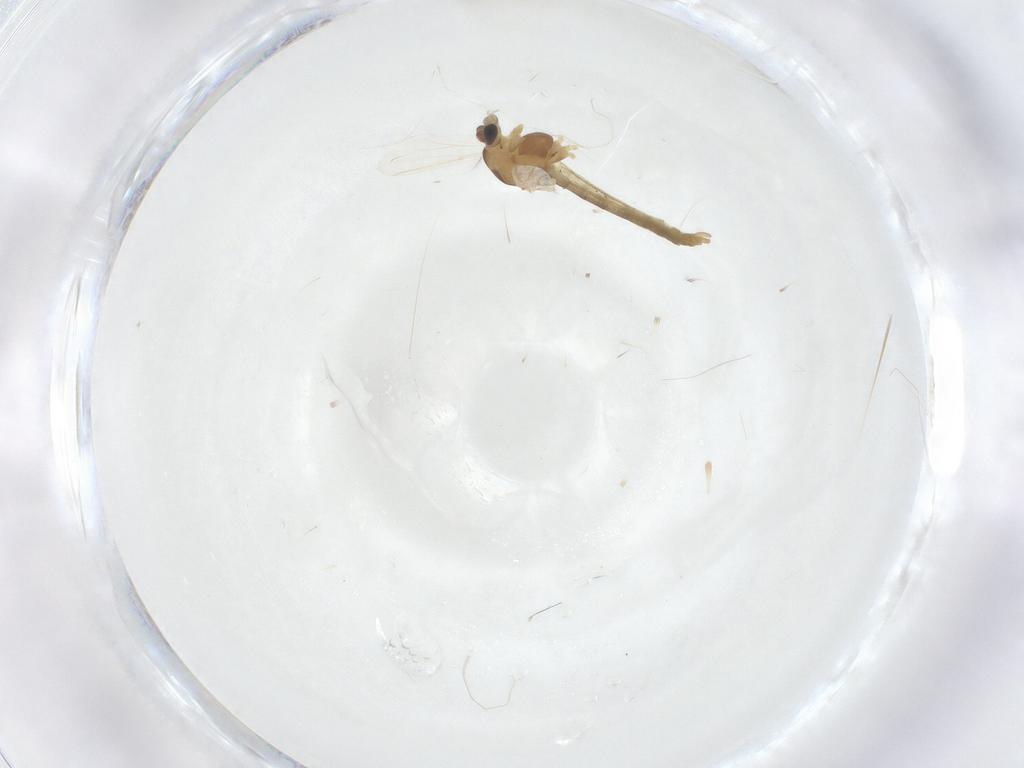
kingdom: Animalia
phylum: Arthropoda
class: Insecta
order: Diptera
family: Chironomidae
